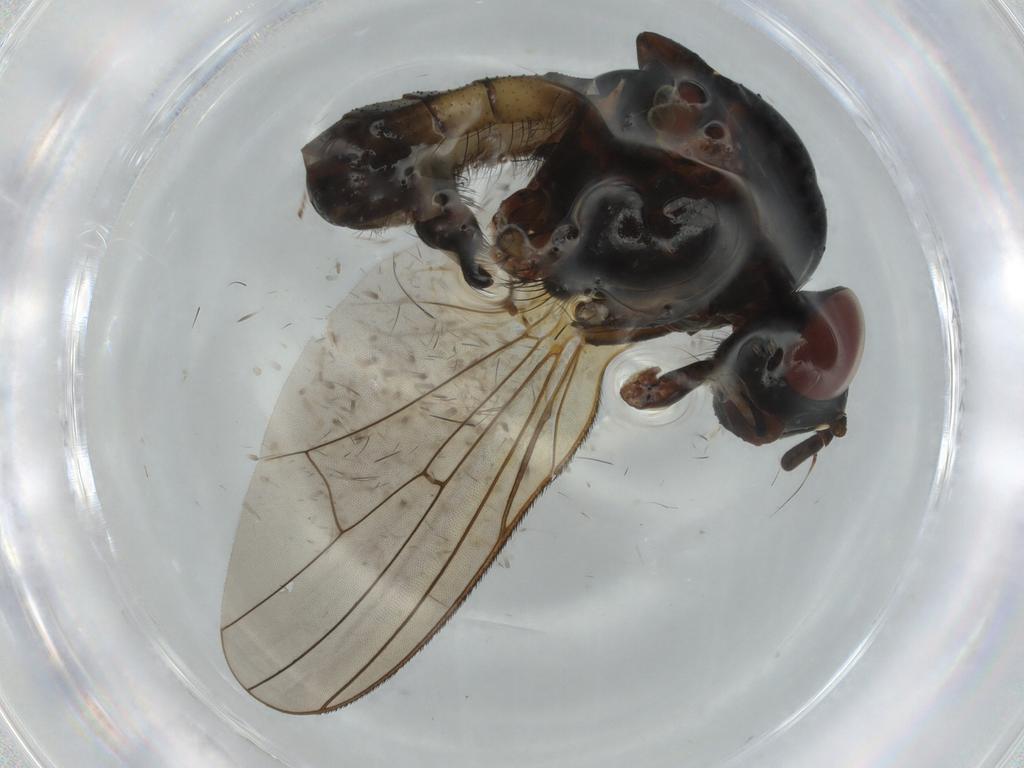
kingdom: Animalia
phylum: Arthropoda
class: Insecta
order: Diptera
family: Anthomyiidae
